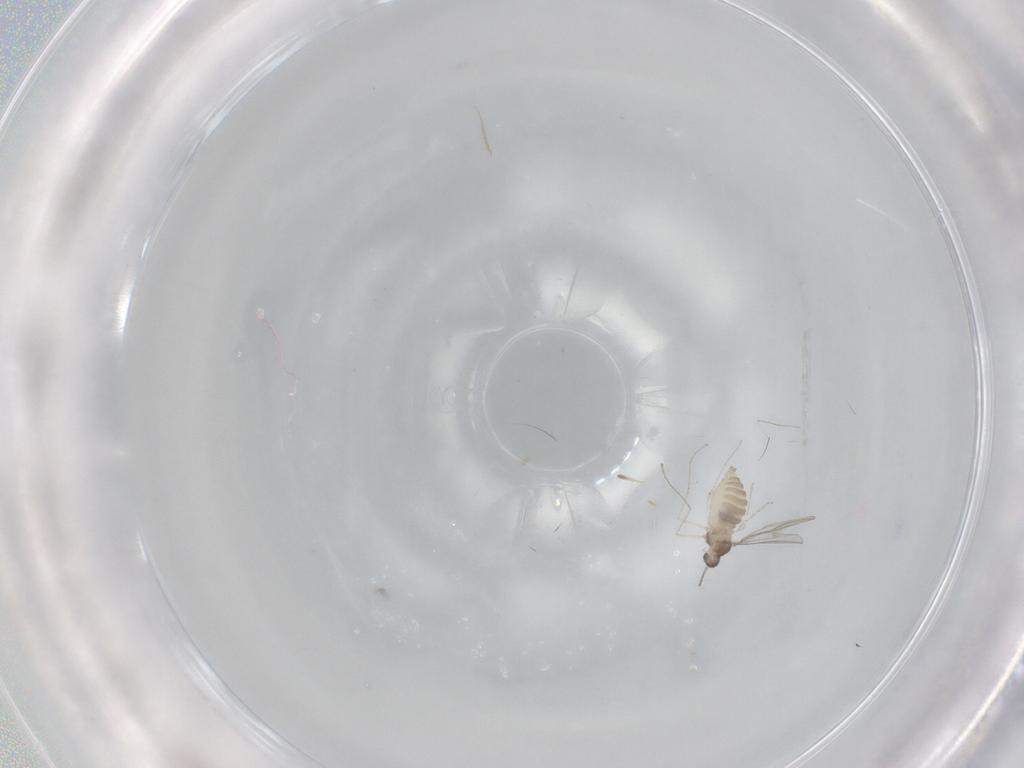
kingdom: Animalia
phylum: Arthropoda
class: Insecta
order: Diptera
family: Cecidomyiidae
